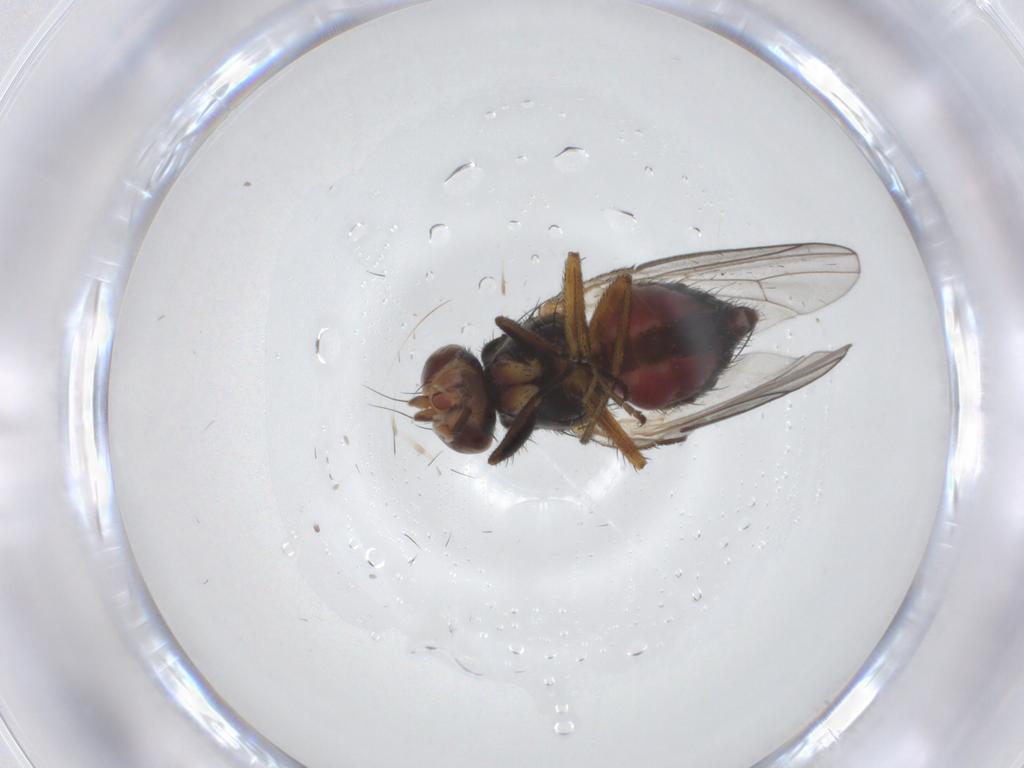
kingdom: Animalia
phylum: Arthropoda
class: Insecta
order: Diptera
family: Heleomyzidae
